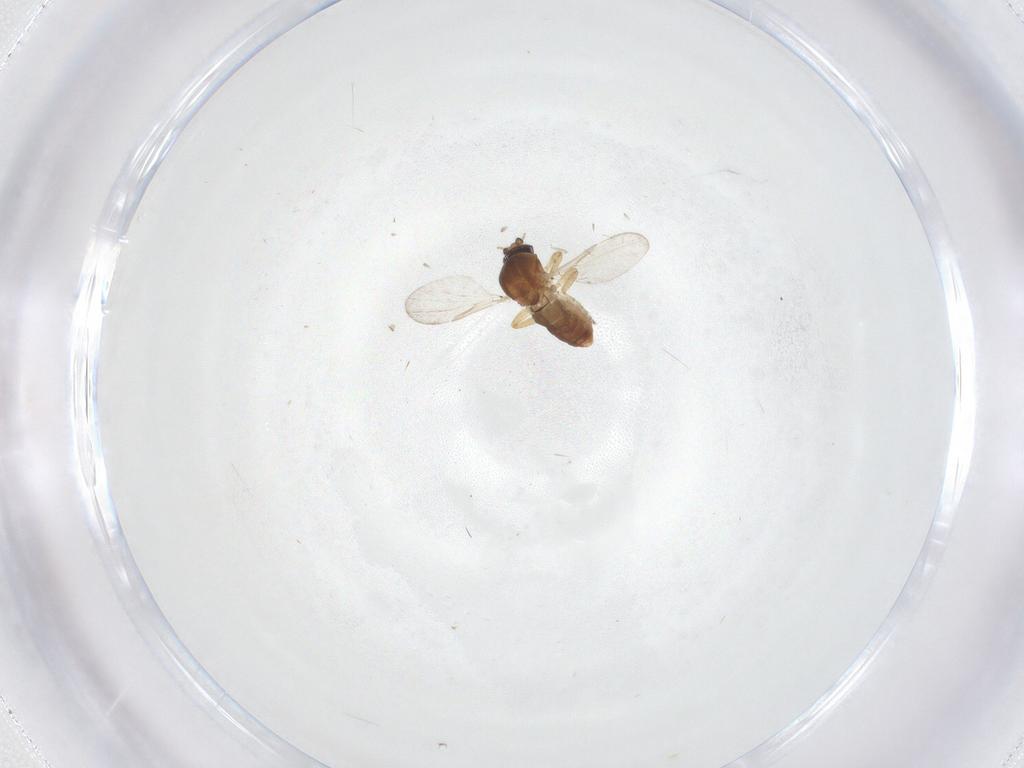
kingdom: Animalia
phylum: Arthropoda
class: Insecta
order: Diptera
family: Ceratopogonidae
